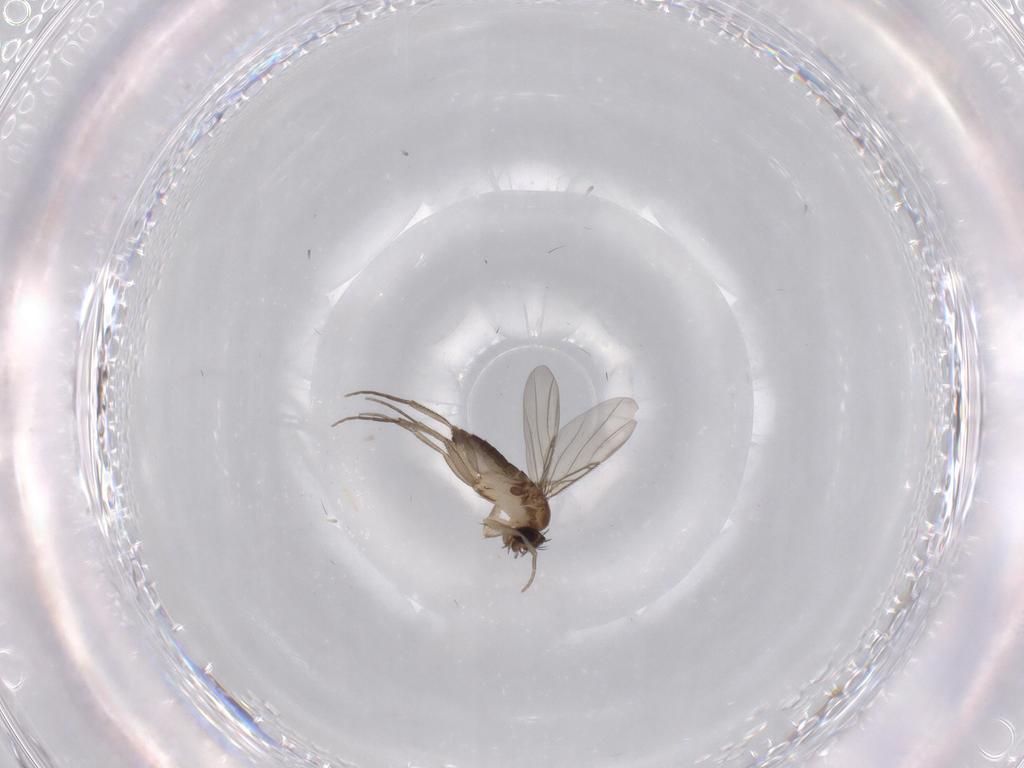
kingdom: Animalia
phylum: Arthropoda
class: Insecta
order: Diptera
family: Phoridae
